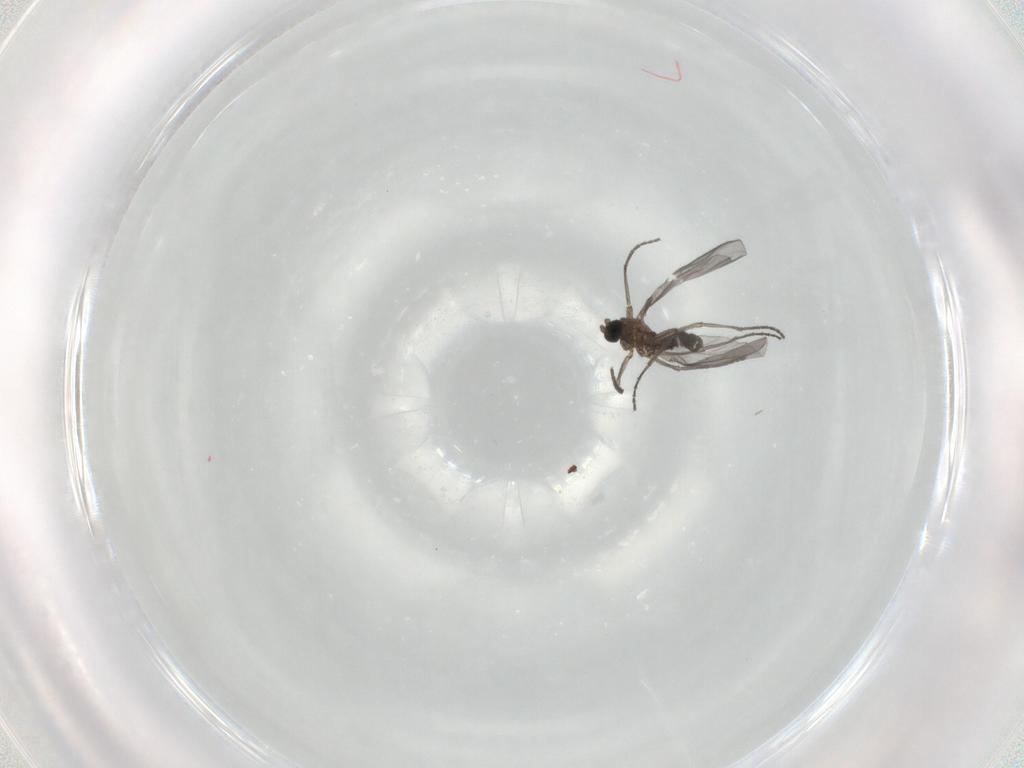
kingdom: Animalia
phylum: Arthropoda
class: Insecta
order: Diptera
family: Sciaridae
